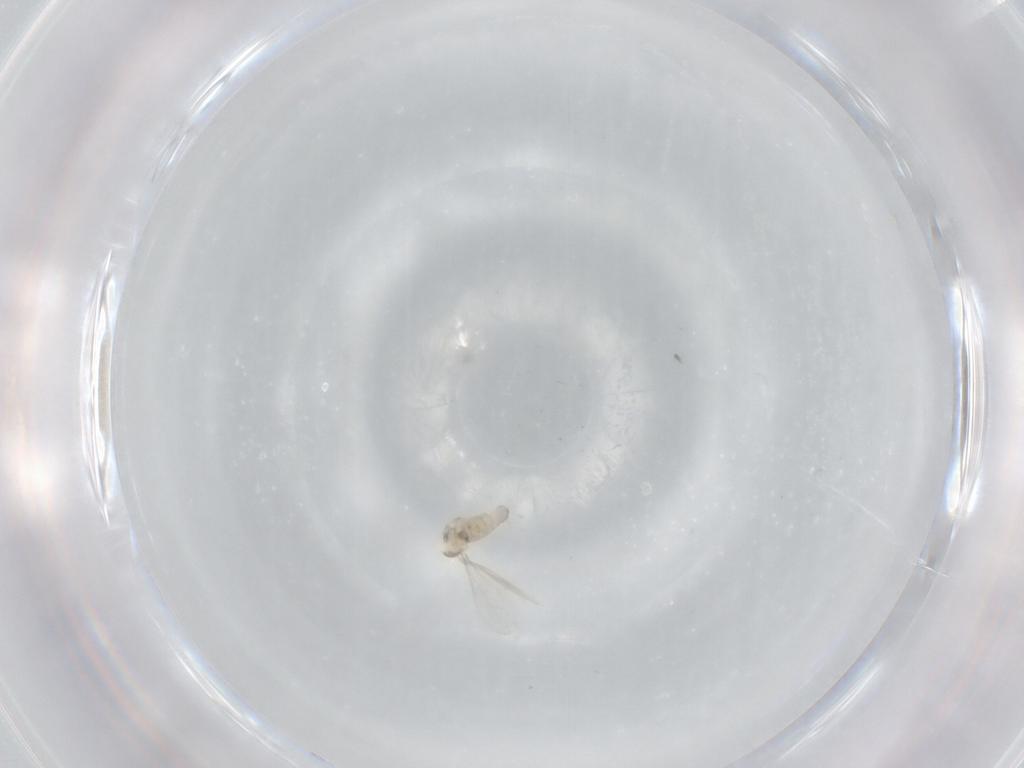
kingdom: Animalia
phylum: Arthropoda
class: Insecta
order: Diptera
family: Cecidomyiidae
